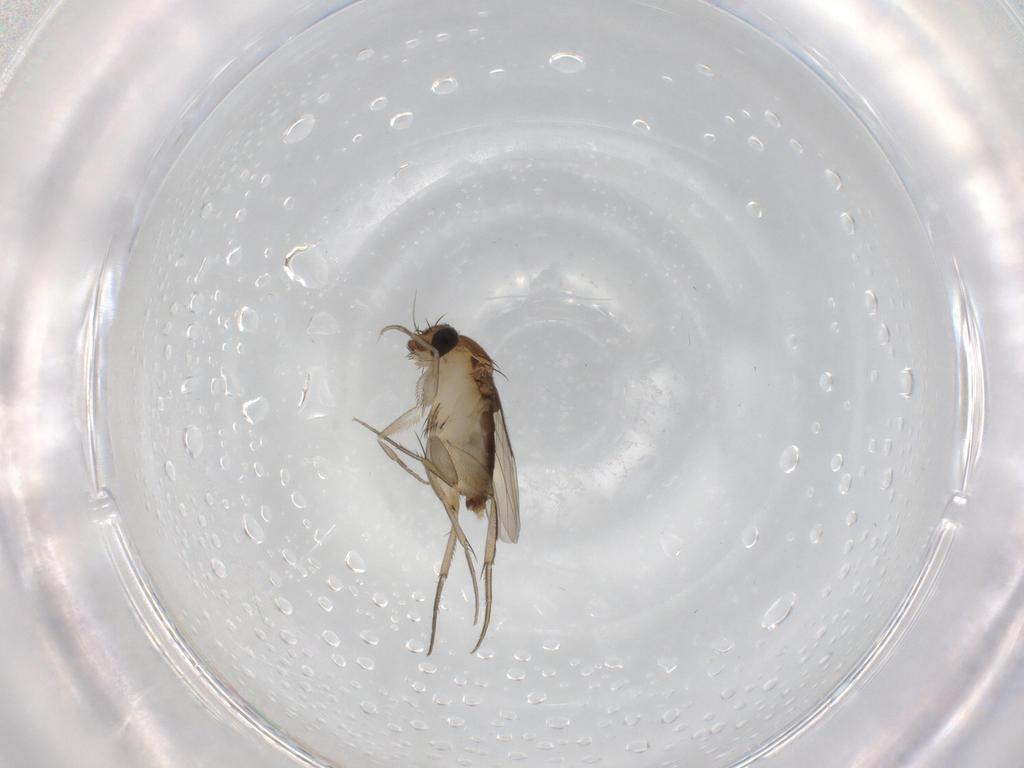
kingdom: Animalia
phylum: Arthropoda
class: Insecta
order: Diptera
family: Phoridae
